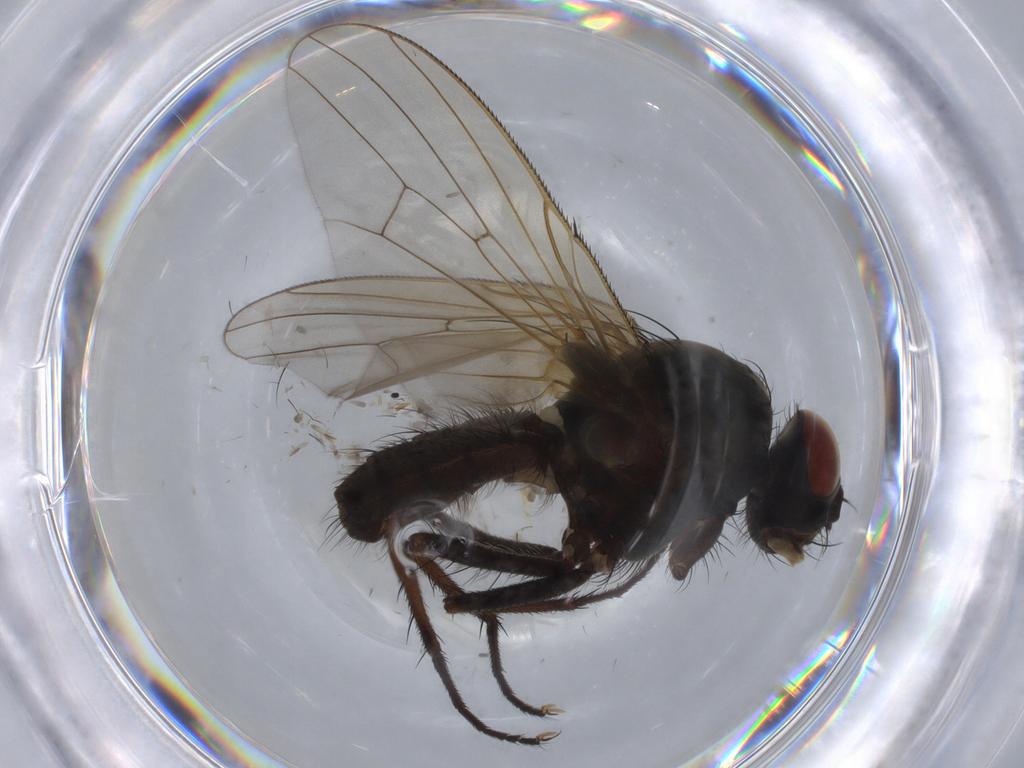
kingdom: Animalia
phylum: Arthropoda
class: Insecta
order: Diptera
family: Anthomyiidae
